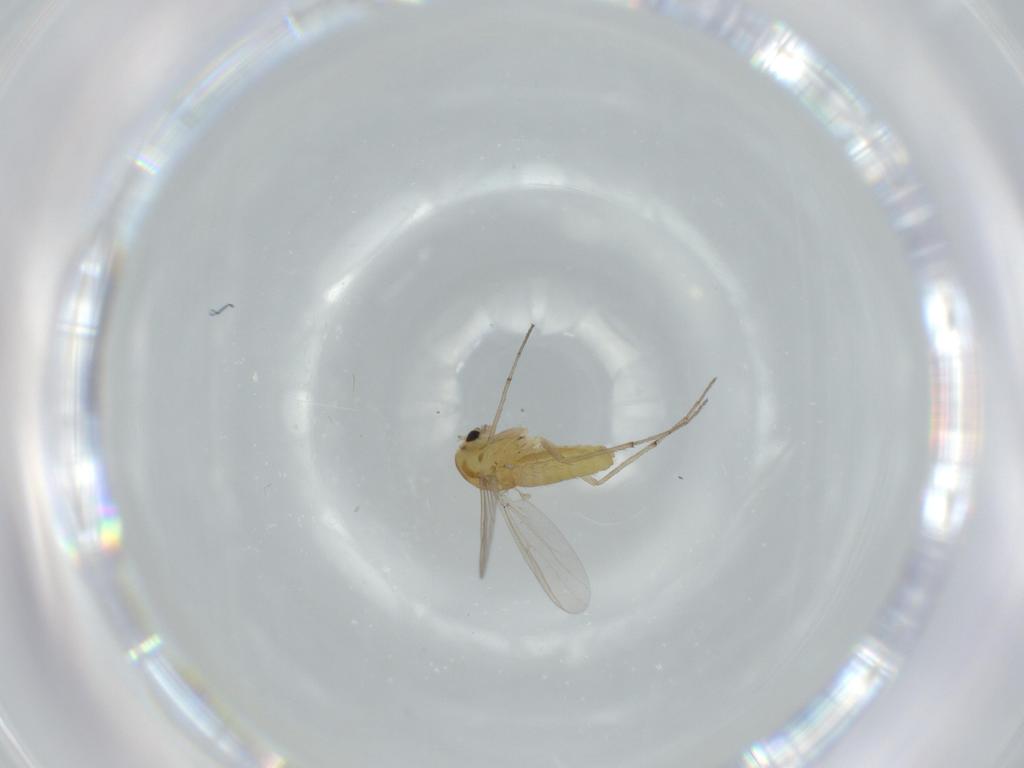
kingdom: Animalia
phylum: Arthropoda
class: Insecta
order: Diptera
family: Chironomidae
